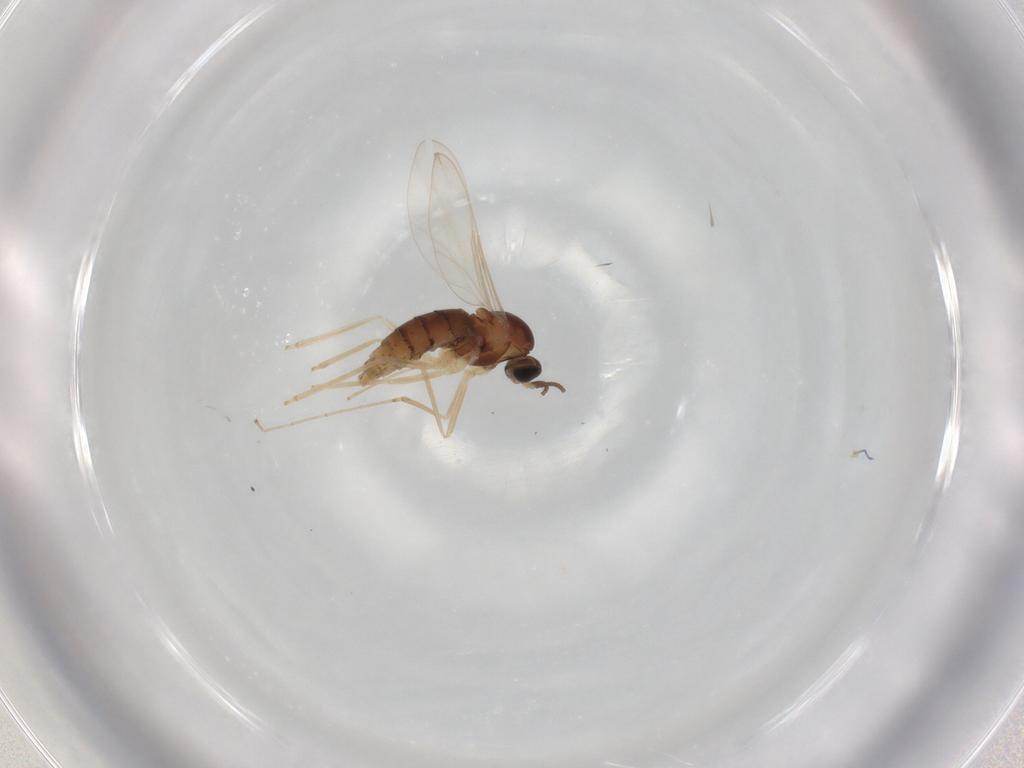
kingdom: Animalia
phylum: Arthropoda
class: Insecta
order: Diptera
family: Cecidomyiidae
